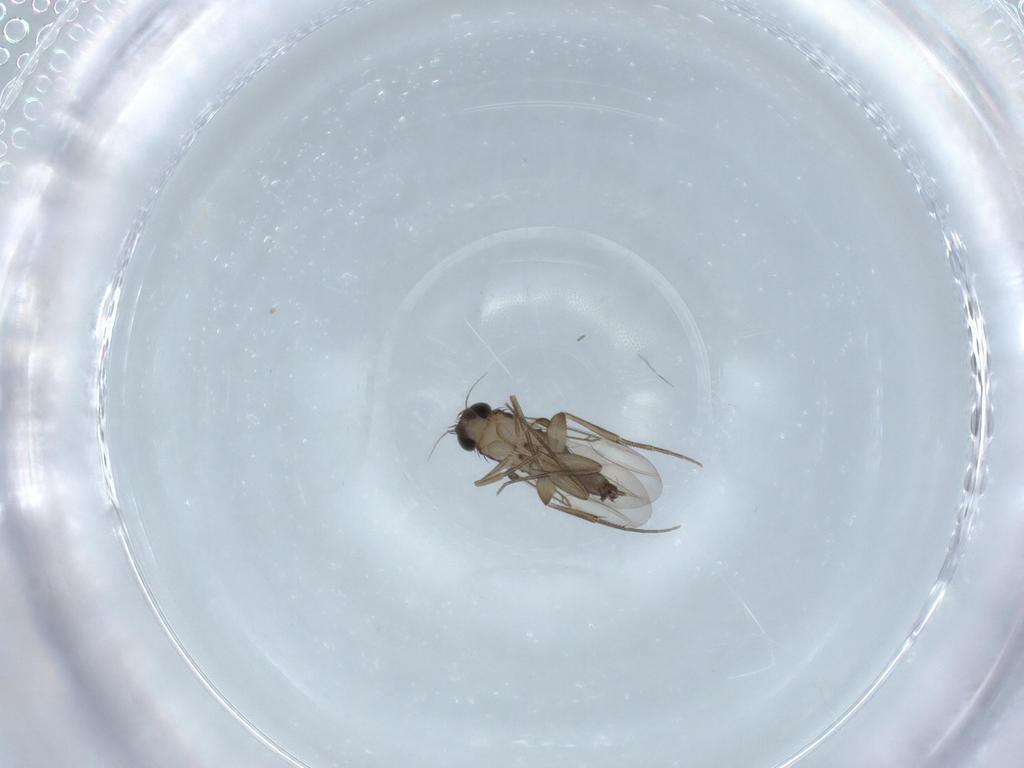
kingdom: Animalia
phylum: Arthropoda
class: Insecta
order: Diptera
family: Phoridae
